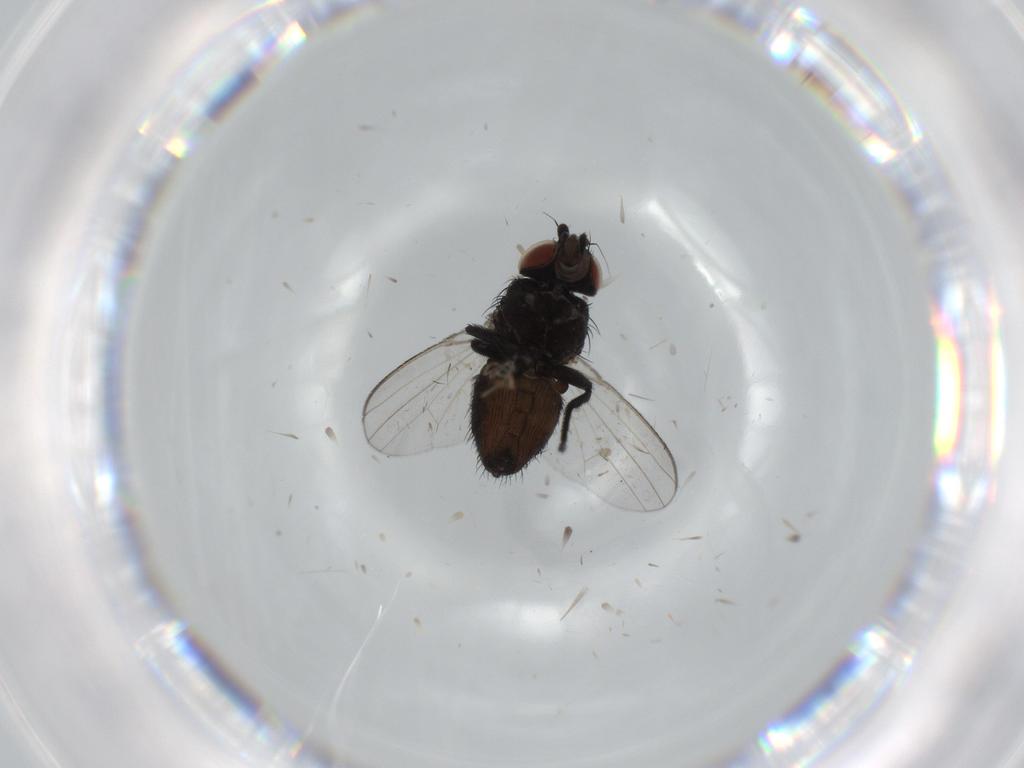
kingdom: Animalia
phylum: Arthropoda
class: Insecta
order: Diptera
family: Milichiidae
